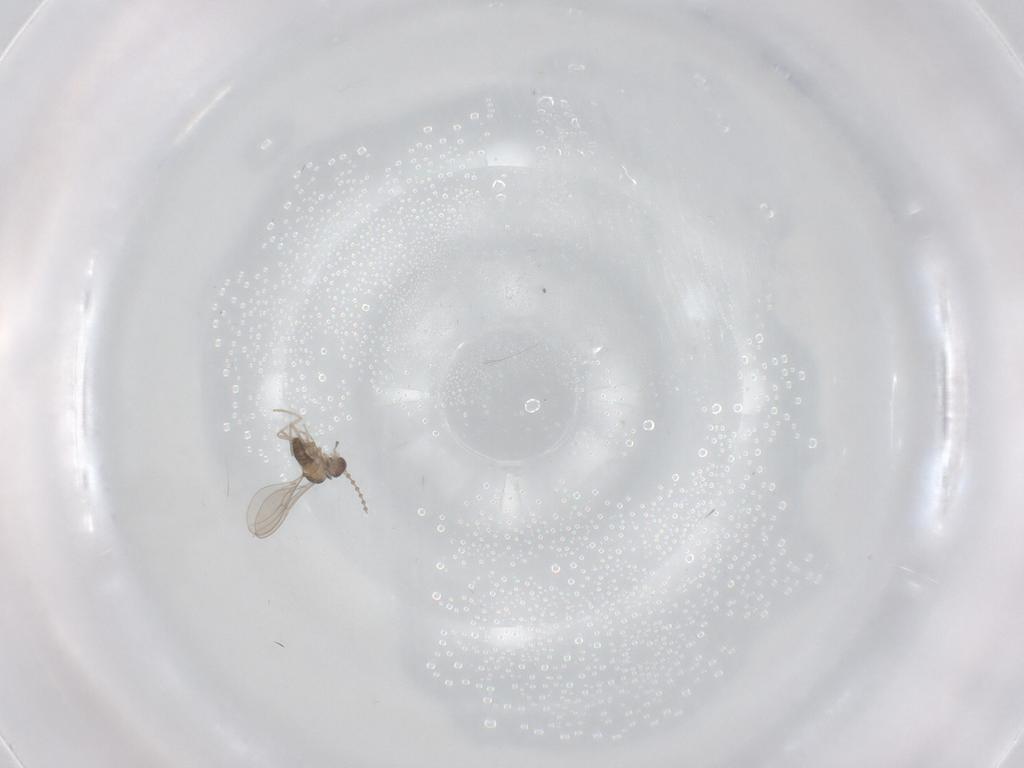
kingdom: Animalia
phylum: Arthropoda
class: Insecta
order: Diptera
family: Cecidomyiidae
